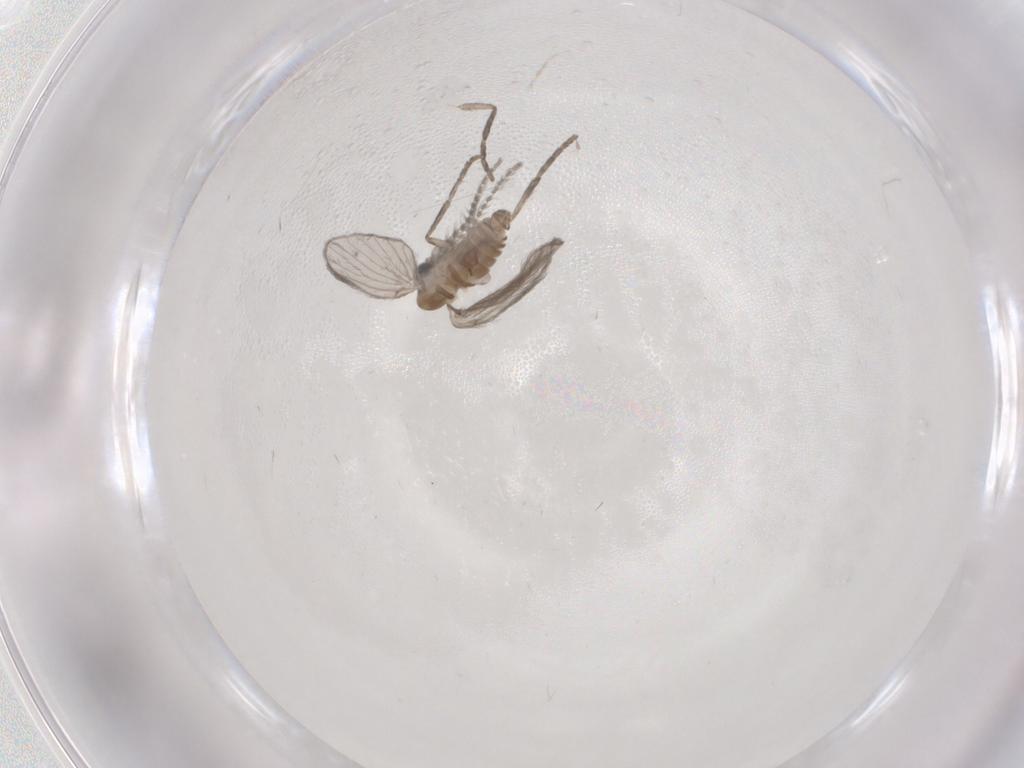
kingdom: Animalia
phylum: Arthropoda
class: Insecta
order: Diptera
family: Psychodidae
